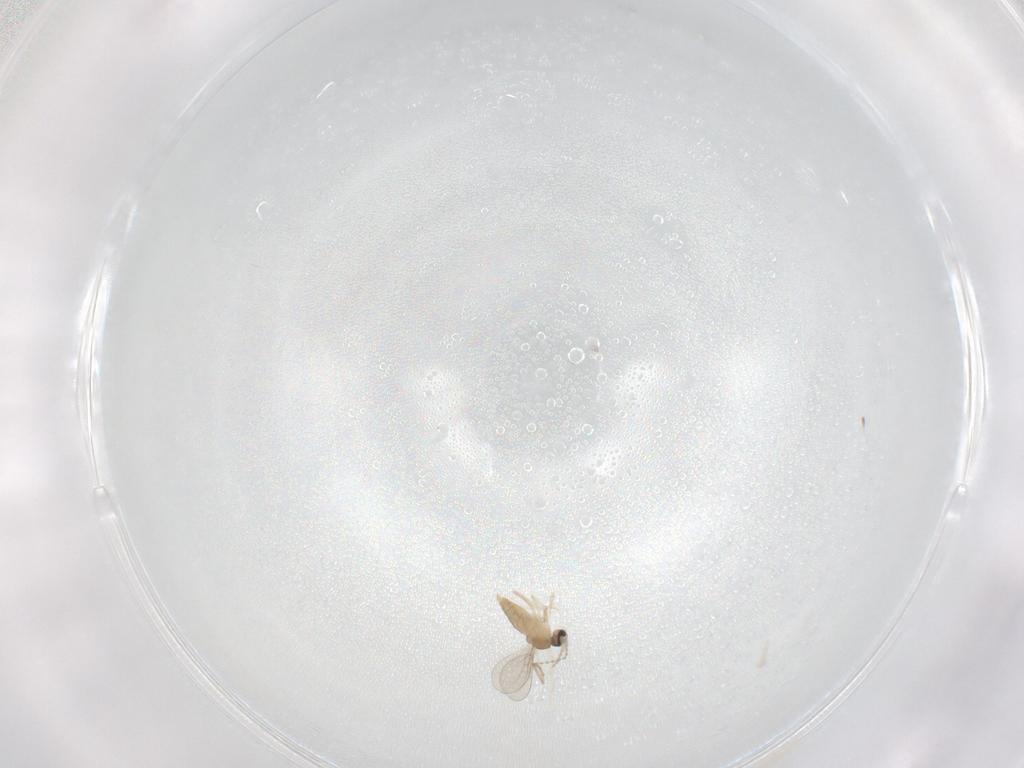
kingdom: Animalia
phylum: Arthropoda
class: Insecta
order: Diptera
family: Cecidomyiidae
